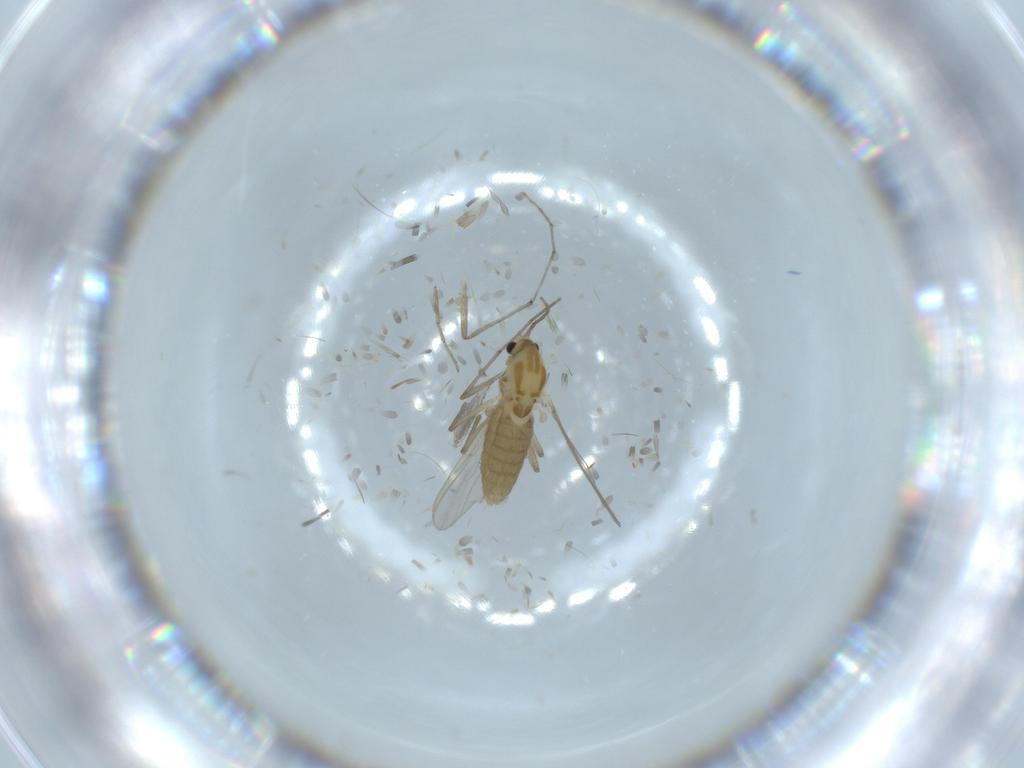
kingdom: Animalia
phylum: Arthropoda
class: Insecta
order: Diptera
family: Chironomidae
